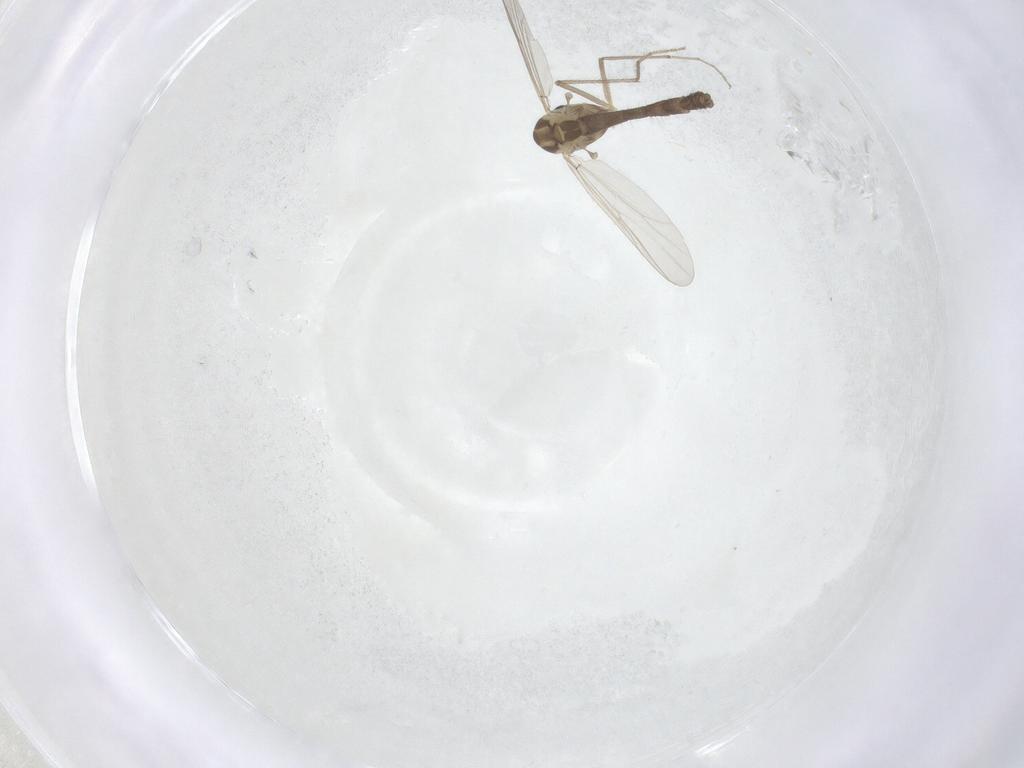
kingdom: Animalia
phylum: Arthropoda
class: Insecta
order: Diptera
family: Chironomidae
